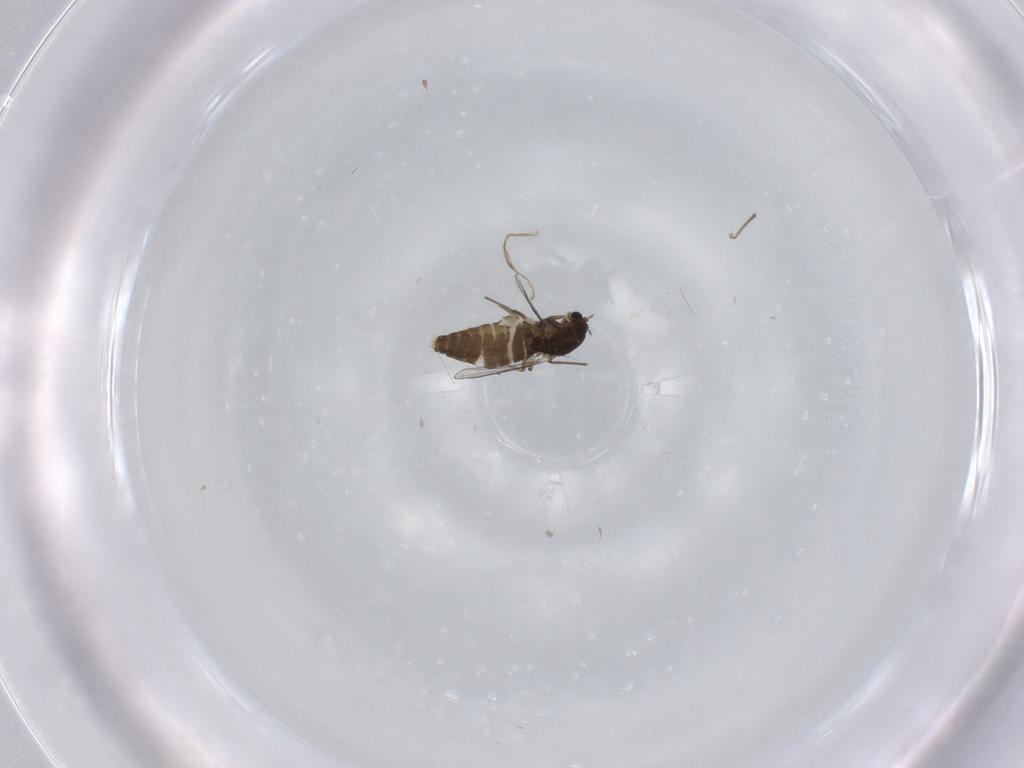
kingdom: Animalia
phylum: Arthropoda
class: Insecta
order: Diptera
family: Chironomidae
